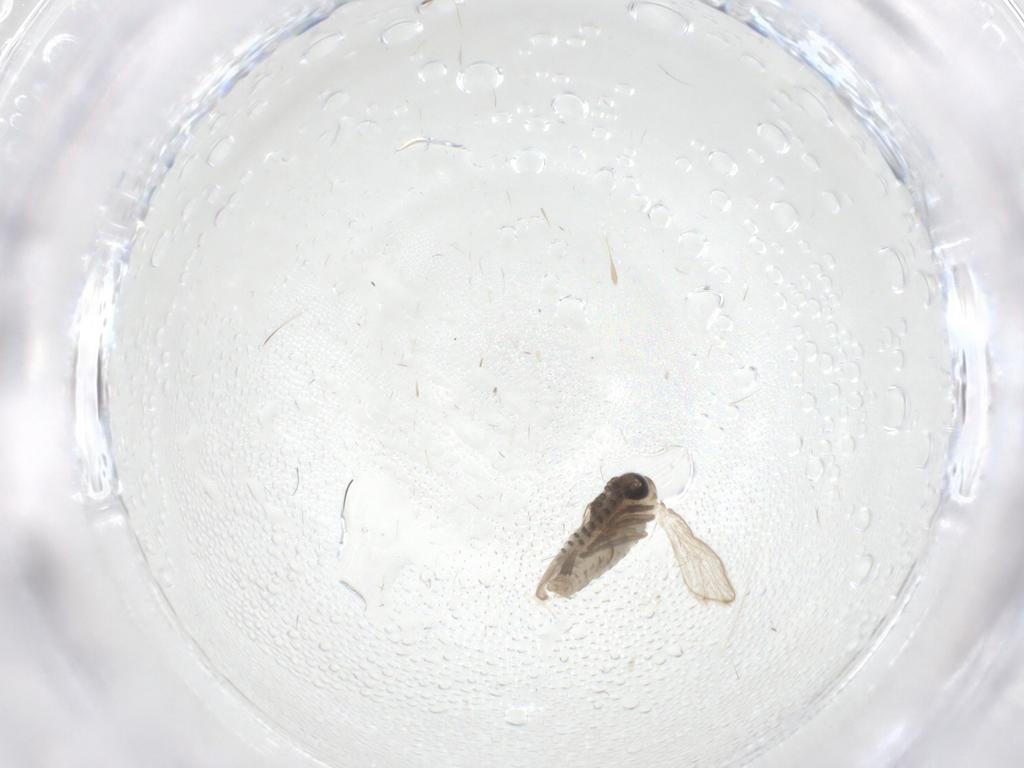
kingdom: Animalia
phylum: Arthropoda
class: Insecta
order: Diptera
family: Psychodidae
